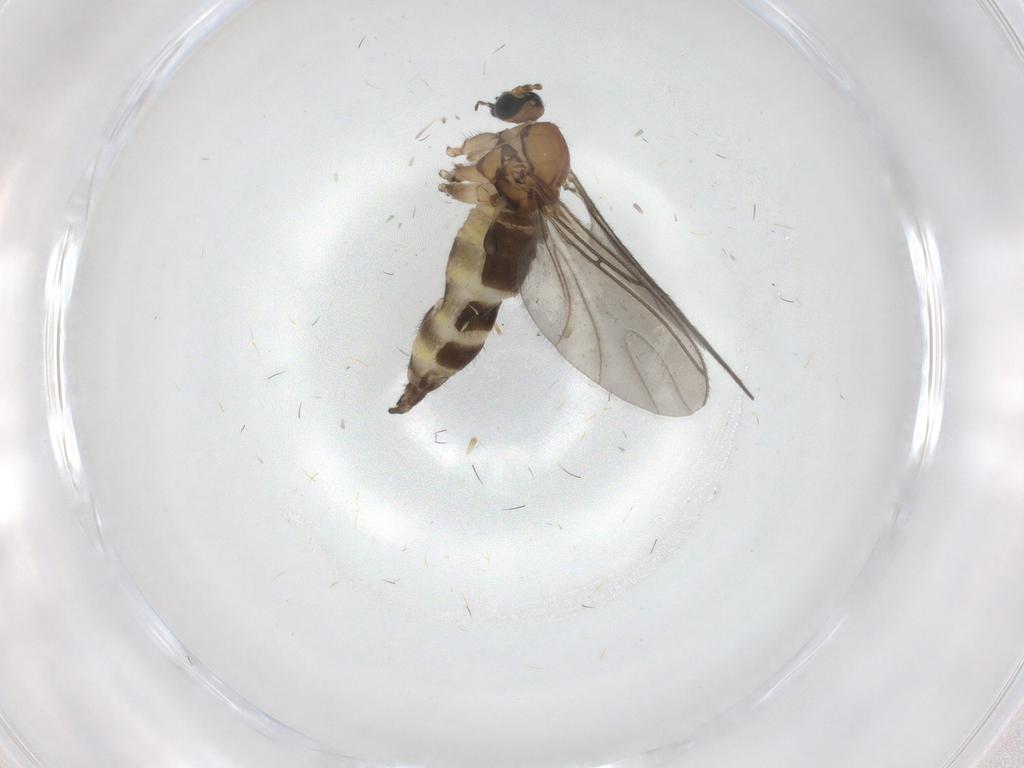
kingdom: Animalia
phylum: Arthropoda
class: Insecta
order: Diptera
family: Sciaridae
